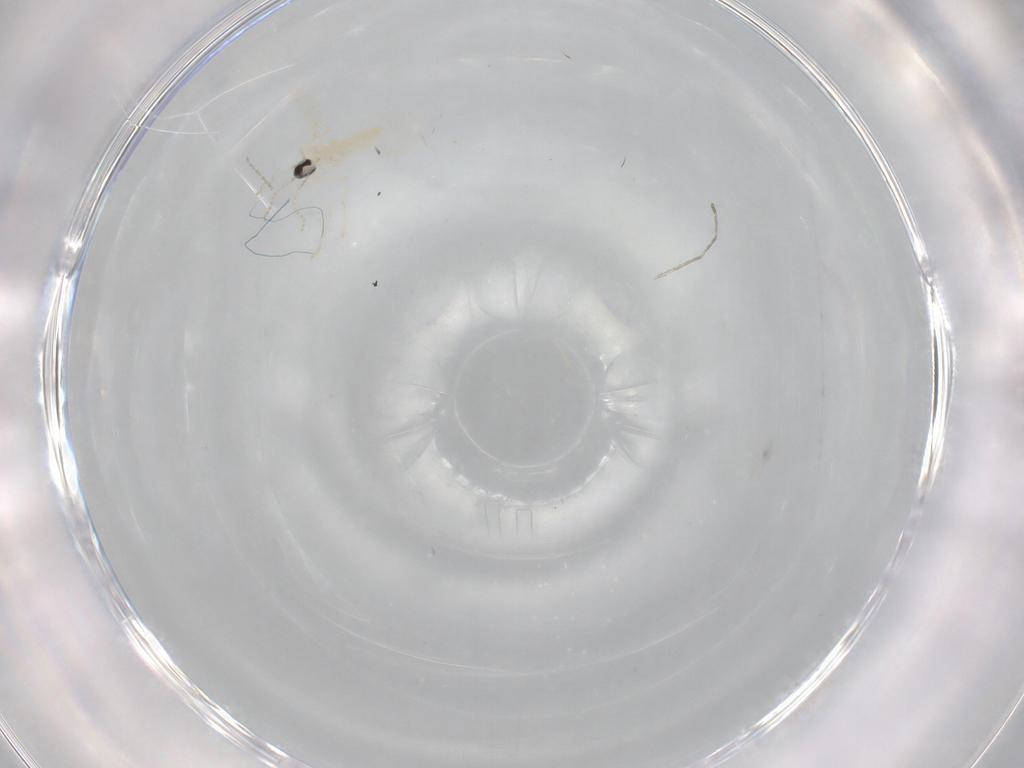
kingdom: Animalia
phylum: Arthropoda
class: Insecta
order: Diptera
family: Cecidomyiidae
